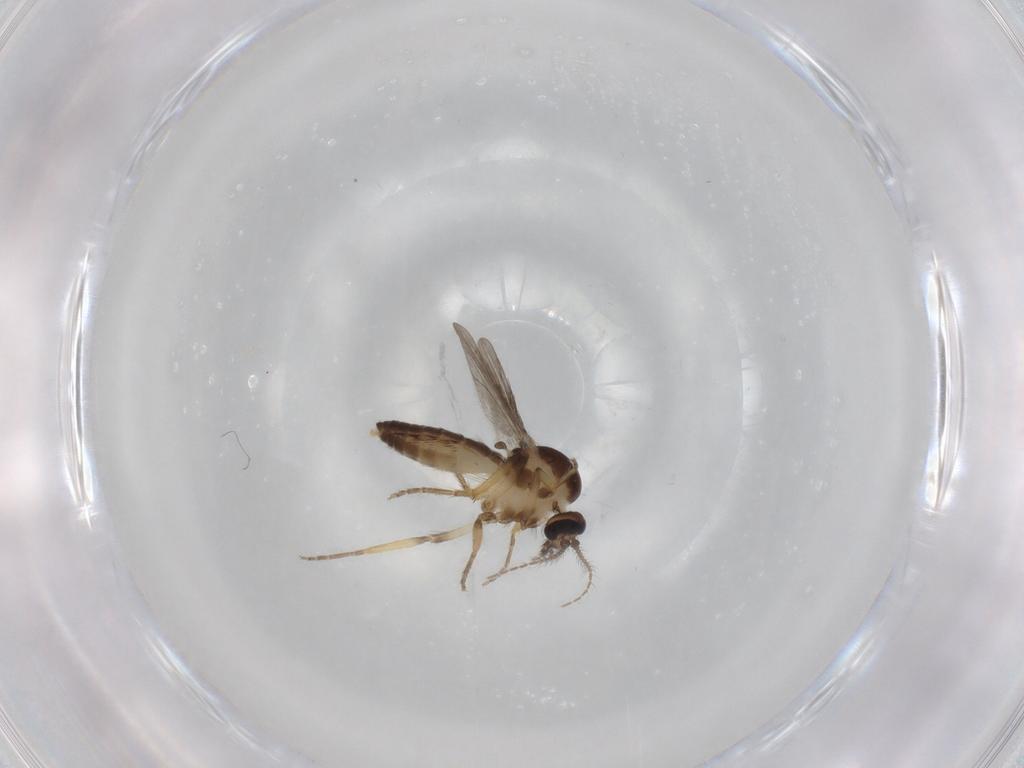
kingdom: Animalia
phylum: Arthropoda
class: Insecta
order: Diptera
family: Ceratopogonidae
